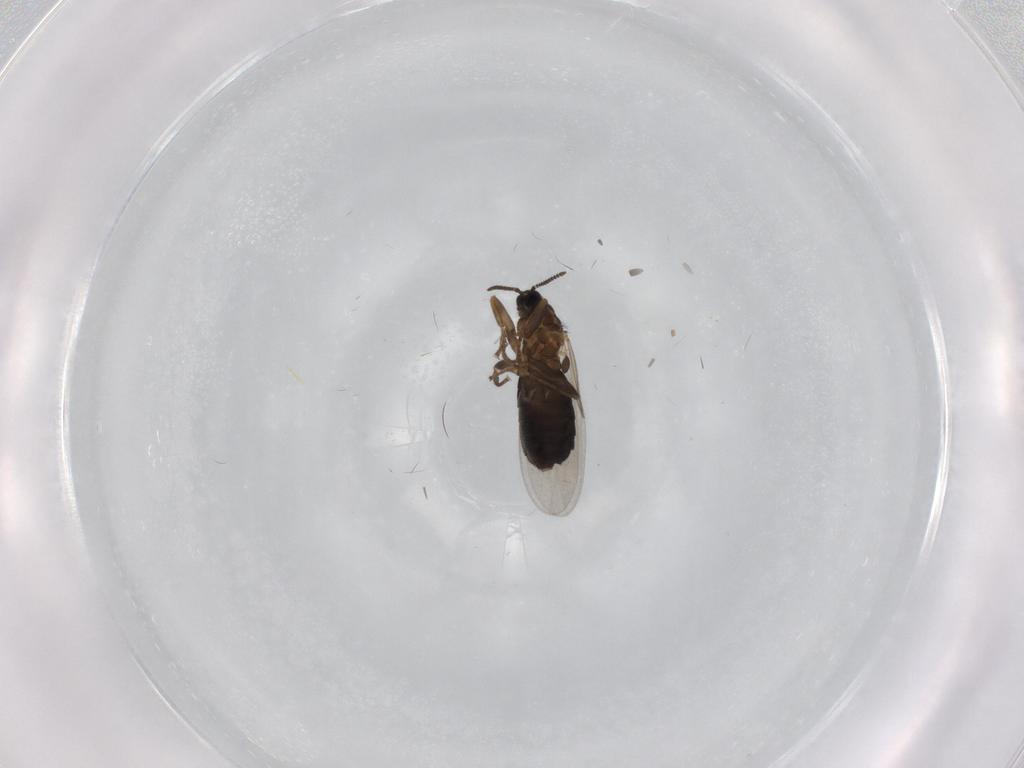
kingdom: Animalia
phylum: Arthropoda
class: Insecta
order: Diptera
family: Scatopsidae
